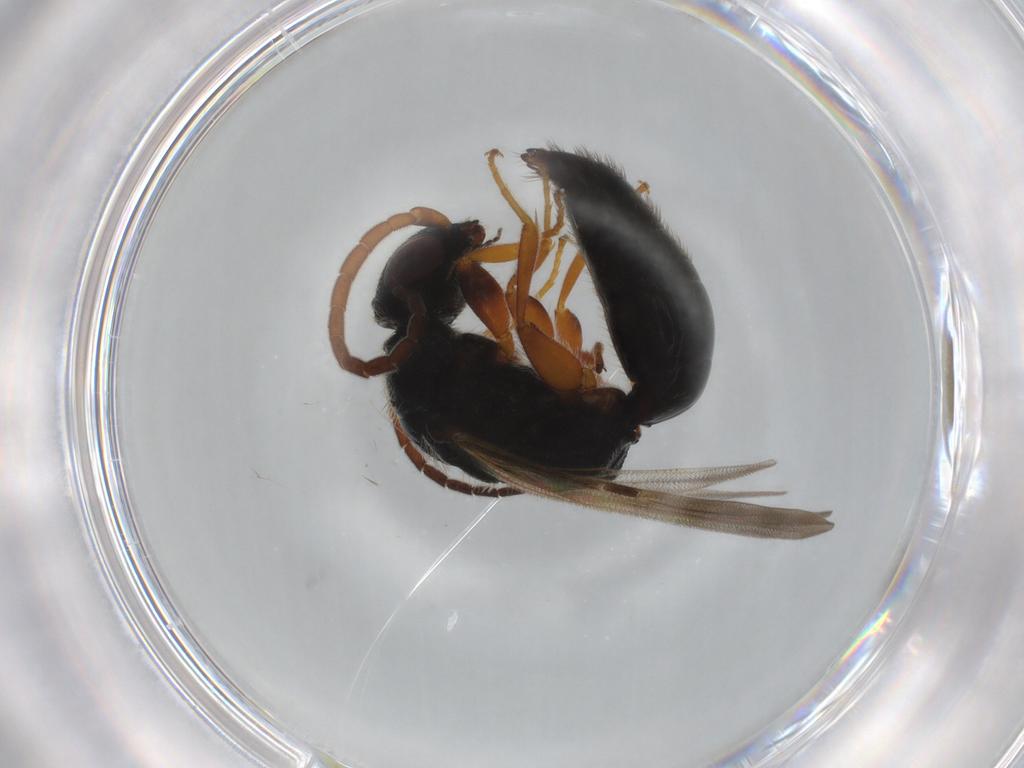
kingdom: Animalia
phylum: Arthropoda
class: Insecta
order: Hymenoptera
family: Bethylidae
